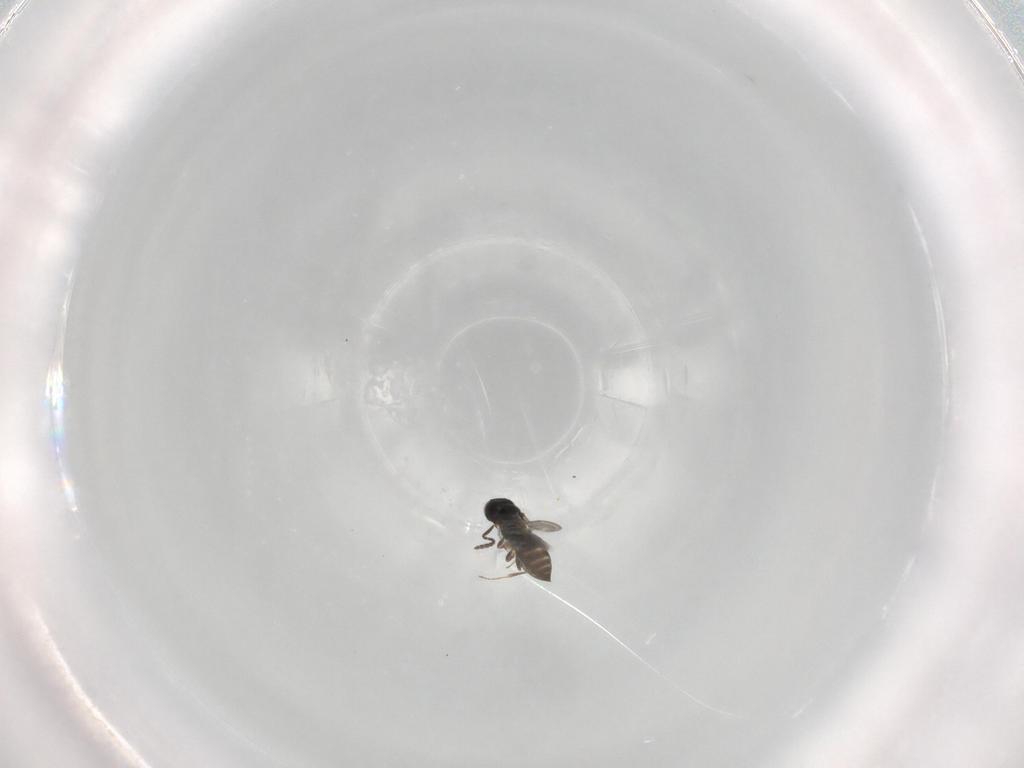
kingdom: Animalia
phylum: Arthropoda
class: Insecta
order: Hymenoptera
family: Scelionidae
